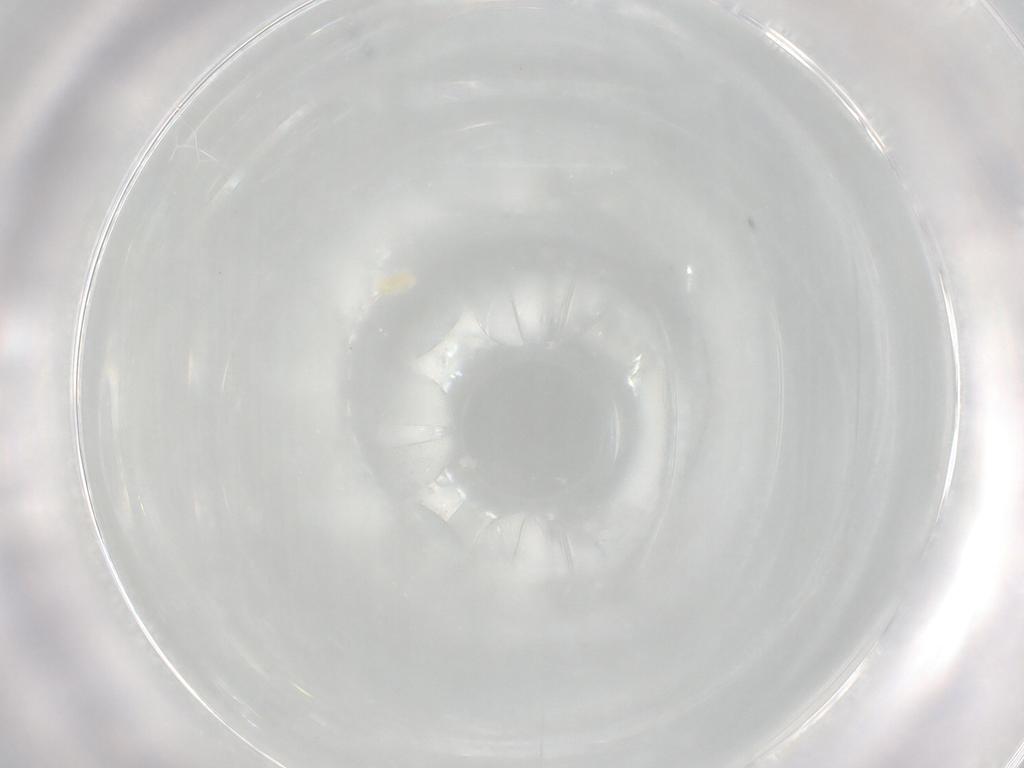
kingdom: Animalia
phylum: Arthropoda
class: Arachnida
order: Trombidiformes
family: Eupodidae
